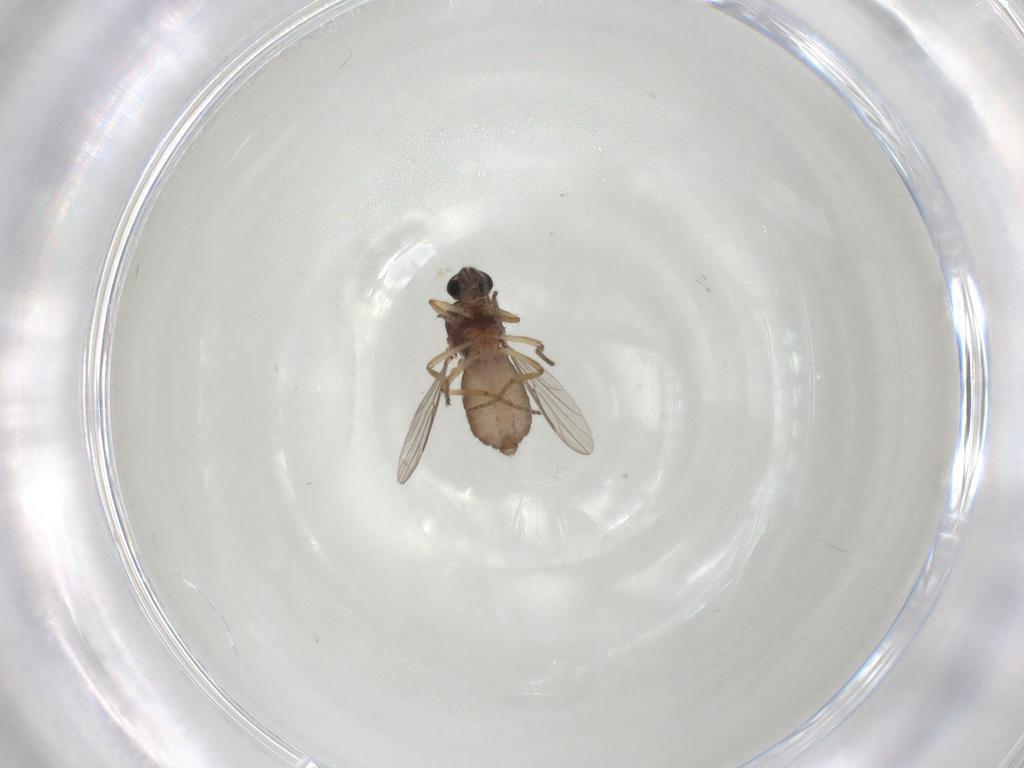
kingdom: Animalia
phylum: Arthropoda
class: Insecta
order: Diptera
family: Ceratopogonidae
